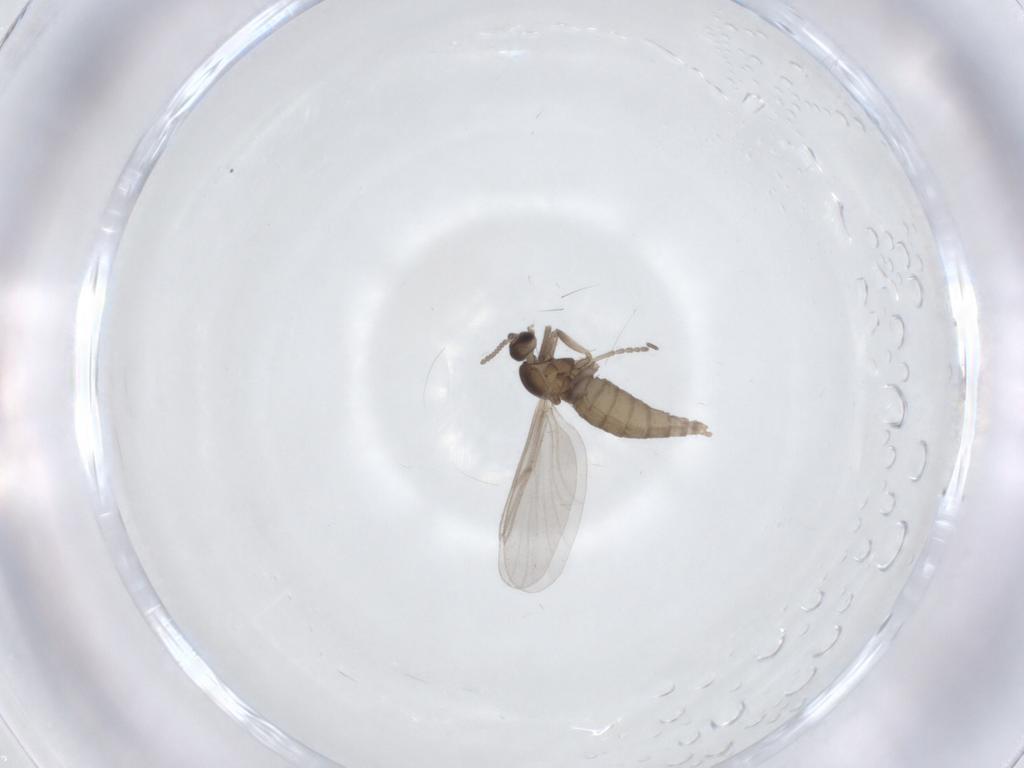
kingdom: Animalia
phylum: Arthropoda
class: Insecta
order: Diptera
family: Cecidomyiidae
